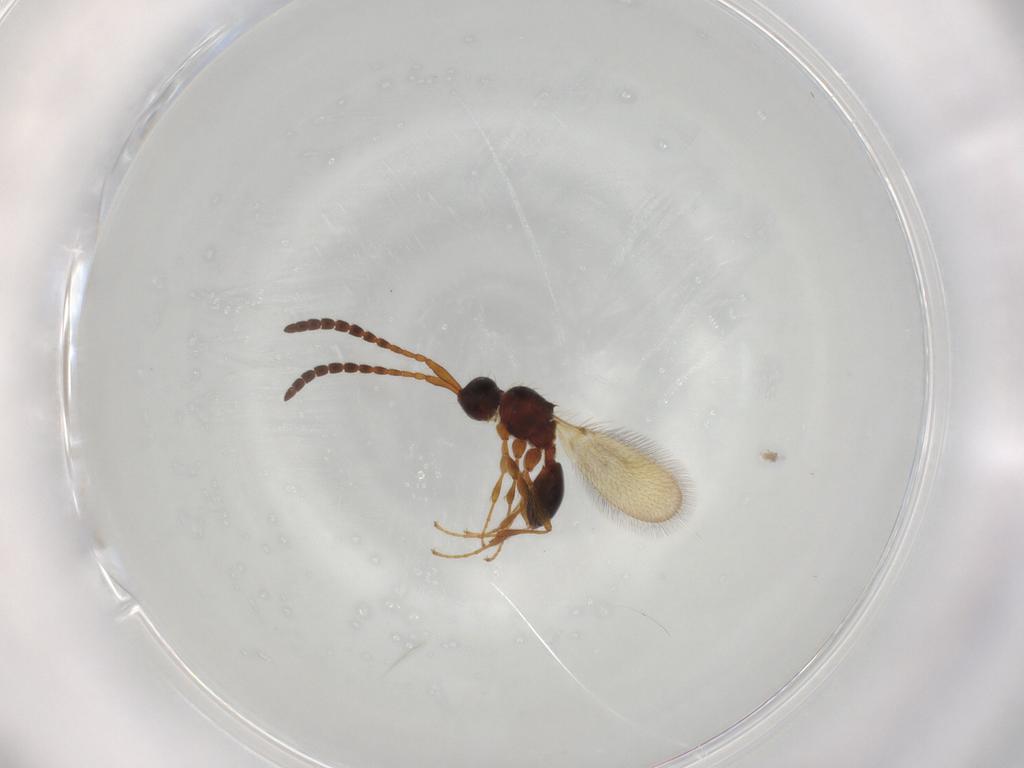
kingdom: Animalia
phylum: Arthropoda
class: Insecta
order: Hymenoptera
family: Diapriidae
